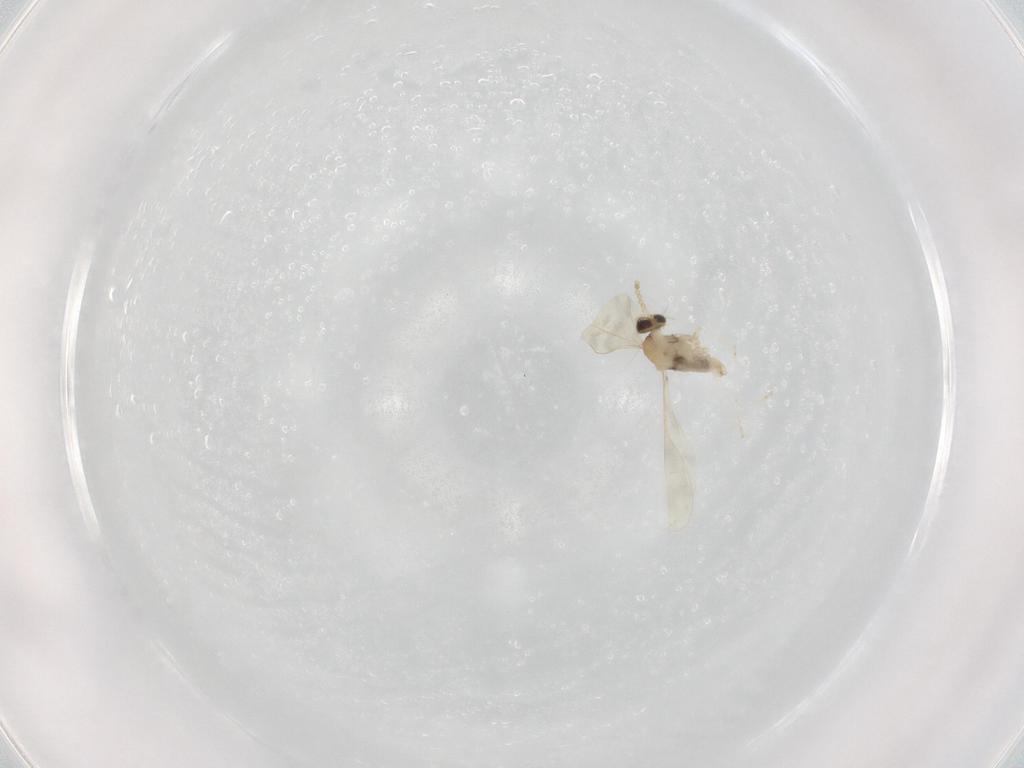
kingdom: Animalia
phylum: Arthropoda
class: Insecta
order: Diptera
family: Cecidomyiidae
